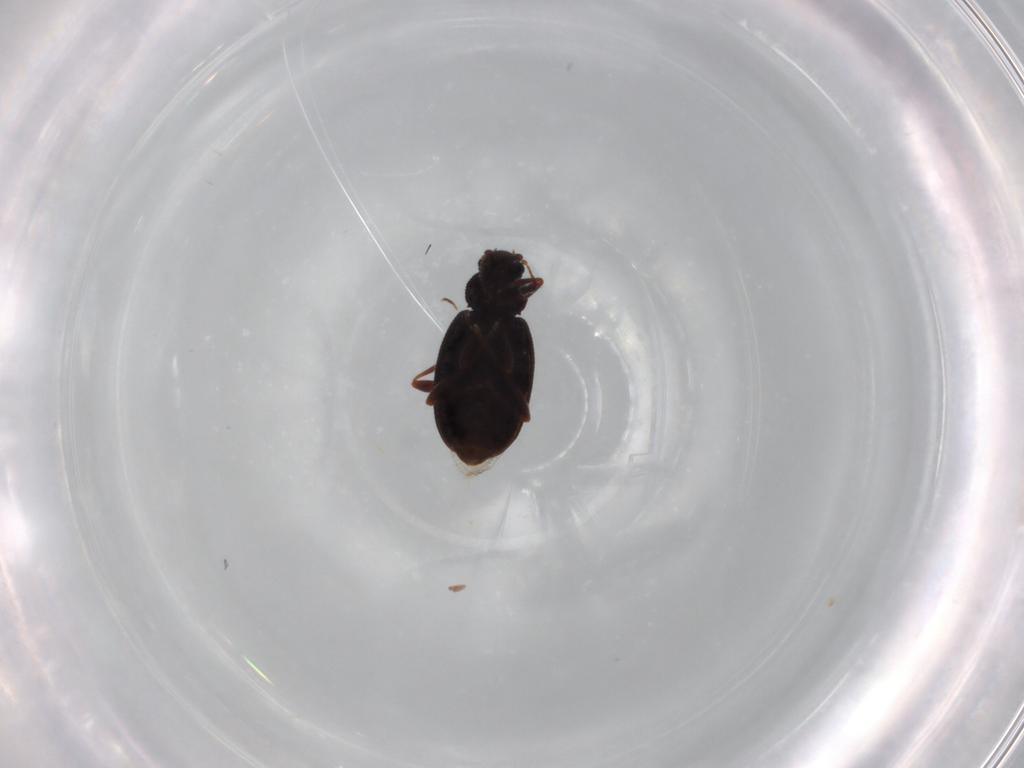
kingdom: Animalia
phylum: Arthropoda
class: Insecta
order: Coleoptera
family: Latridiidae
